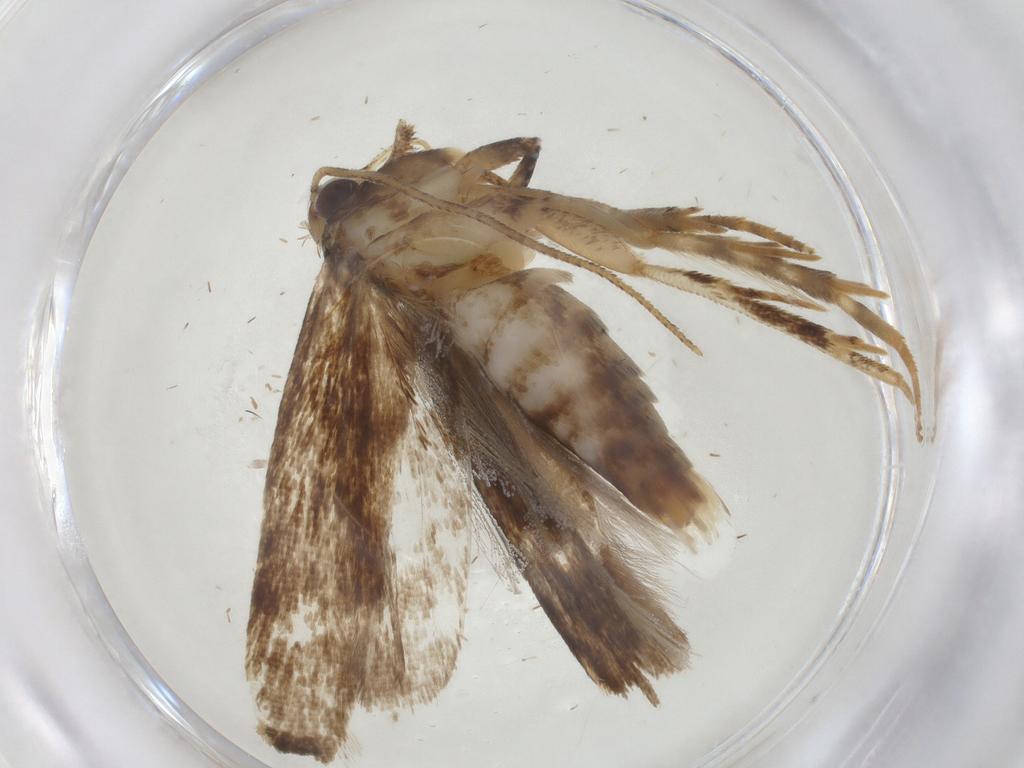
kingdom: Animalia
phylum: Arthropoda
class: Insecta
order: Lepidoptera
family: Gelechiidae
